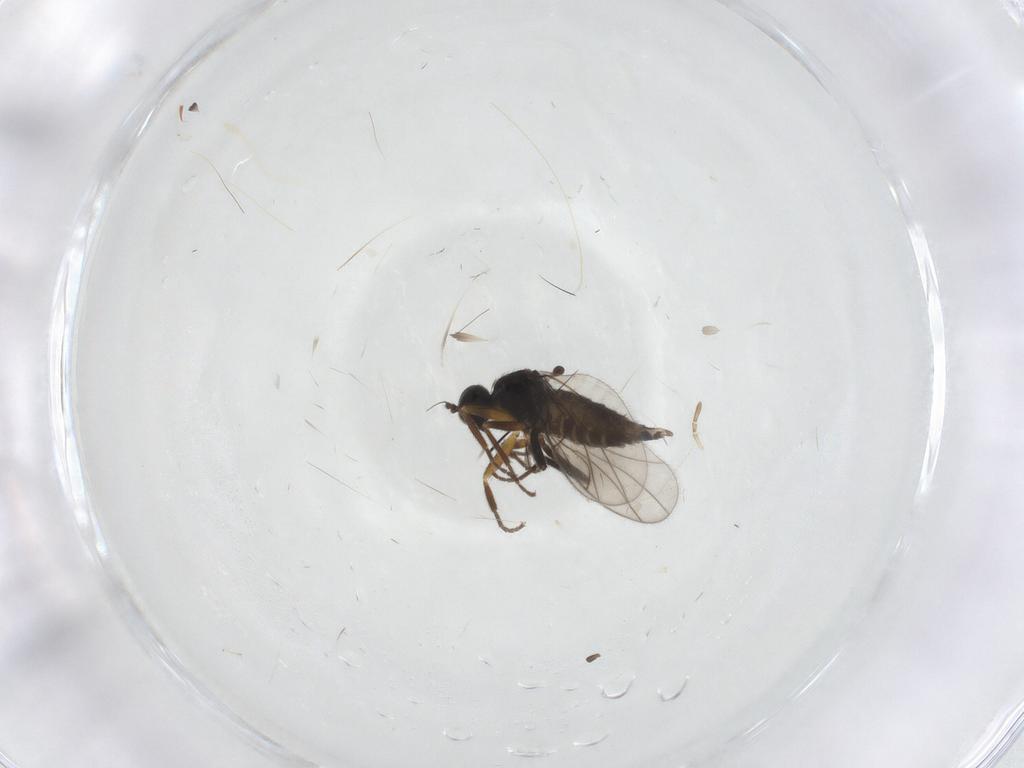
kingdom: Animalia
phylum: Arthropoda
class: Insecta
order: Diptera
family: Hybotidae
